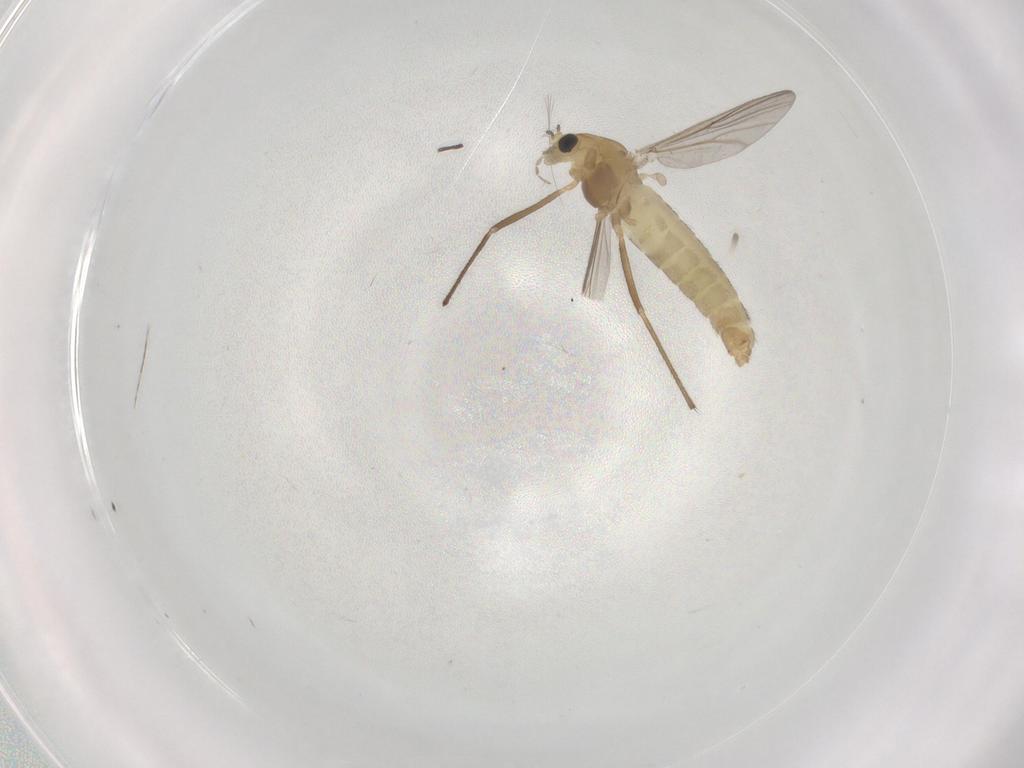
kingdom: Animalia
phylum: Arthropoda
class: Insecta
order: Diptera
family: Chironomidae
